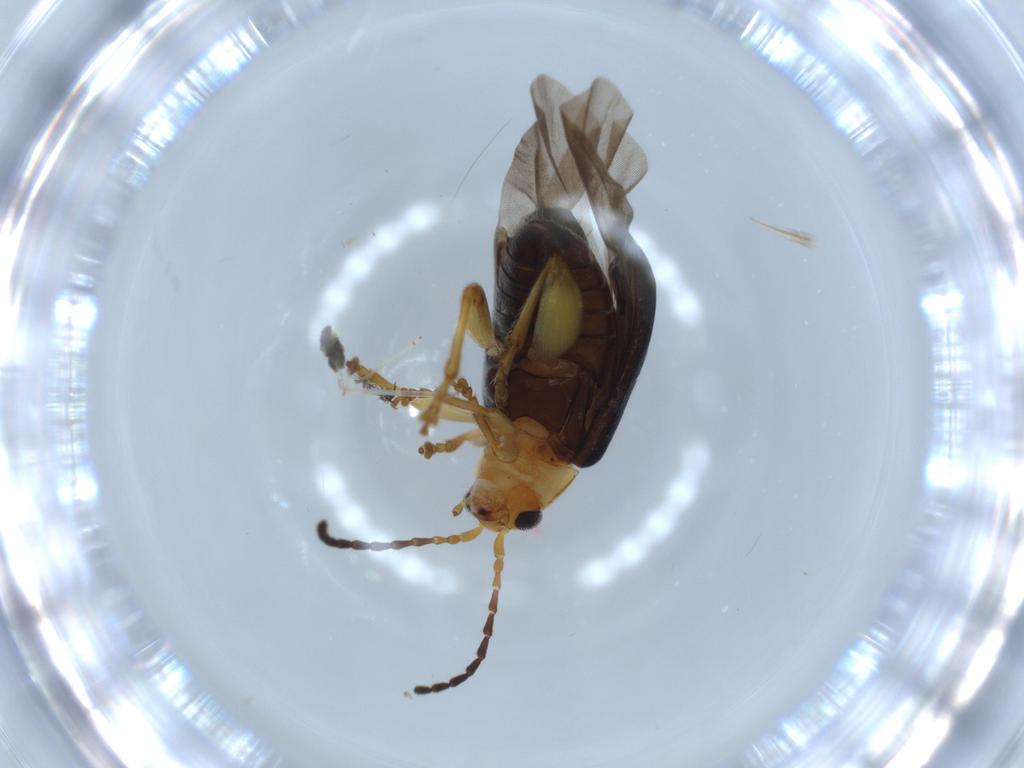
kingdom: Animalia
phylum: Arthropoda
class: Insecta
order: Coleoptera
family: Chrysomelidae
